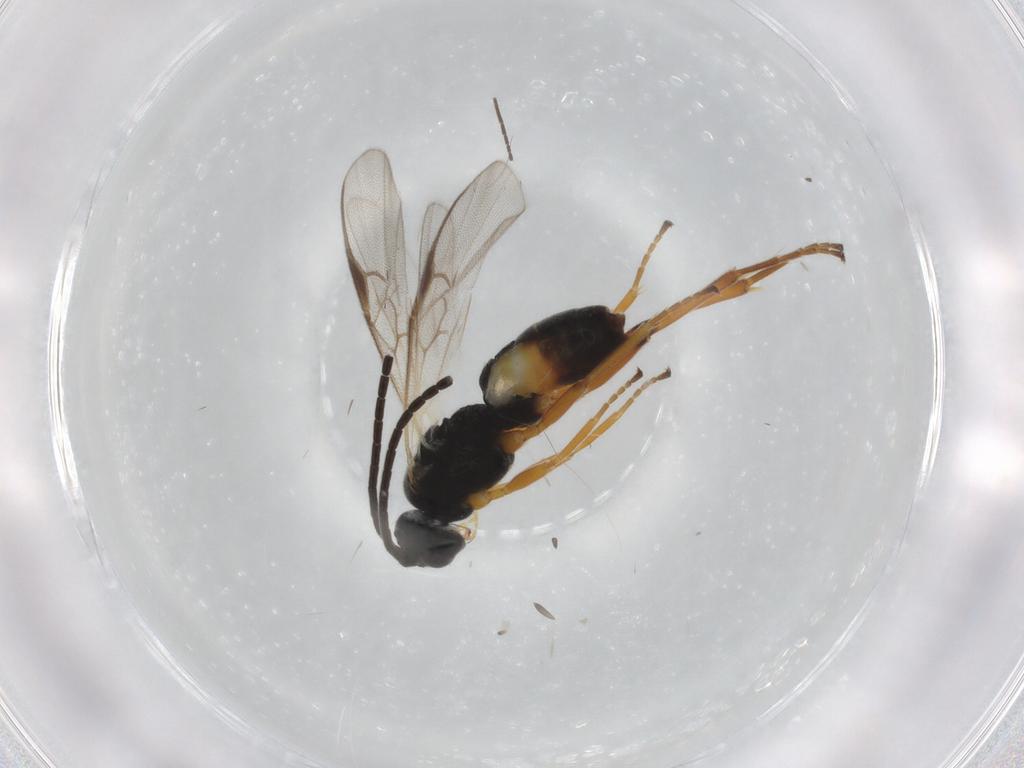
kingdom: Animalia
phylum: Arthropoda
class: Insecta
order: Hymenoptera
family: Braconidae
